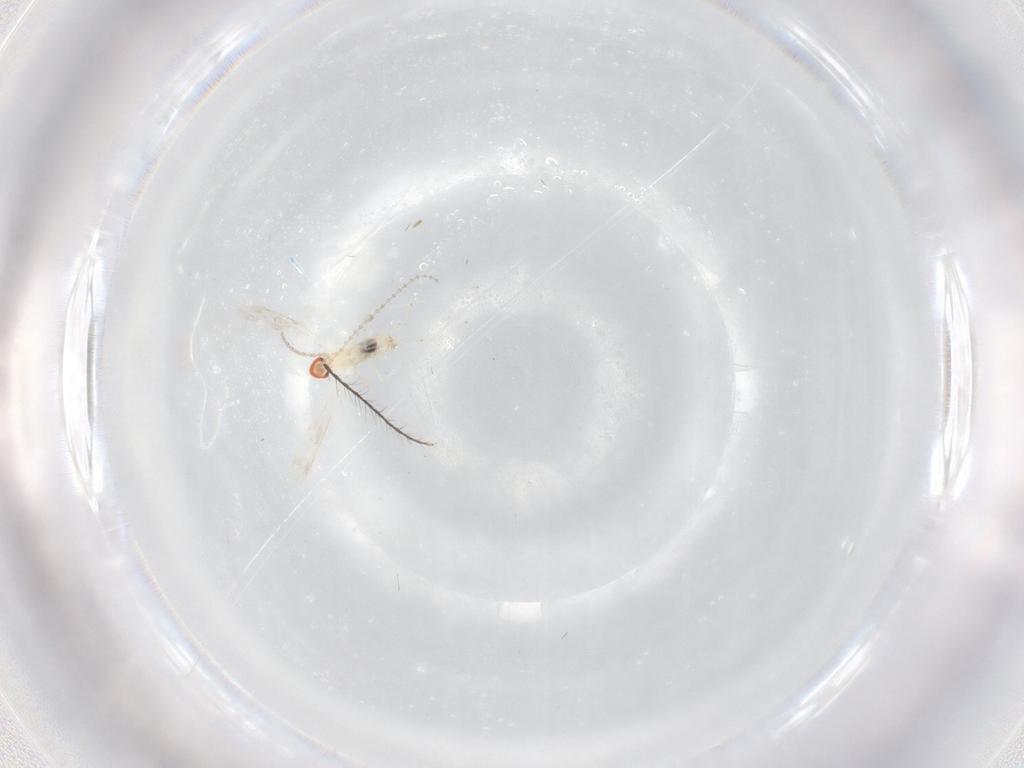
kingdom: Animalia
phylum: Arthropoda
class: Insecta
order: Diptera
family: Cecidomyiidae
